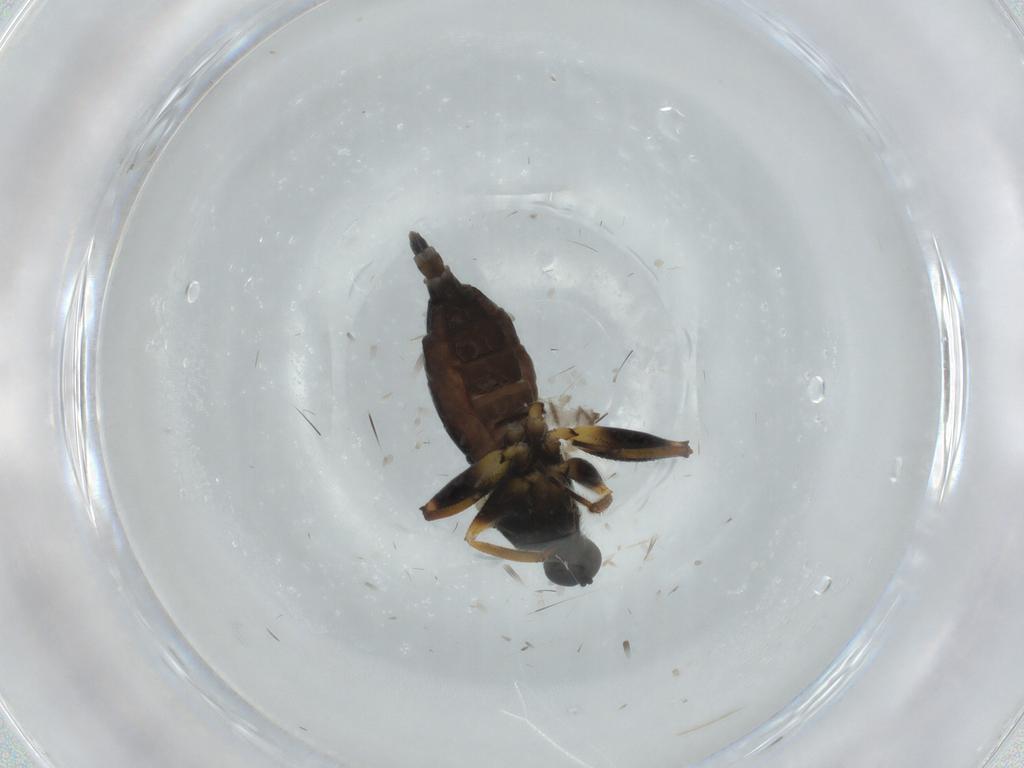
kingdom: Animalia
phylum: Arthropoda
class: Insecta
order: Diptera
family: Hybotidae
